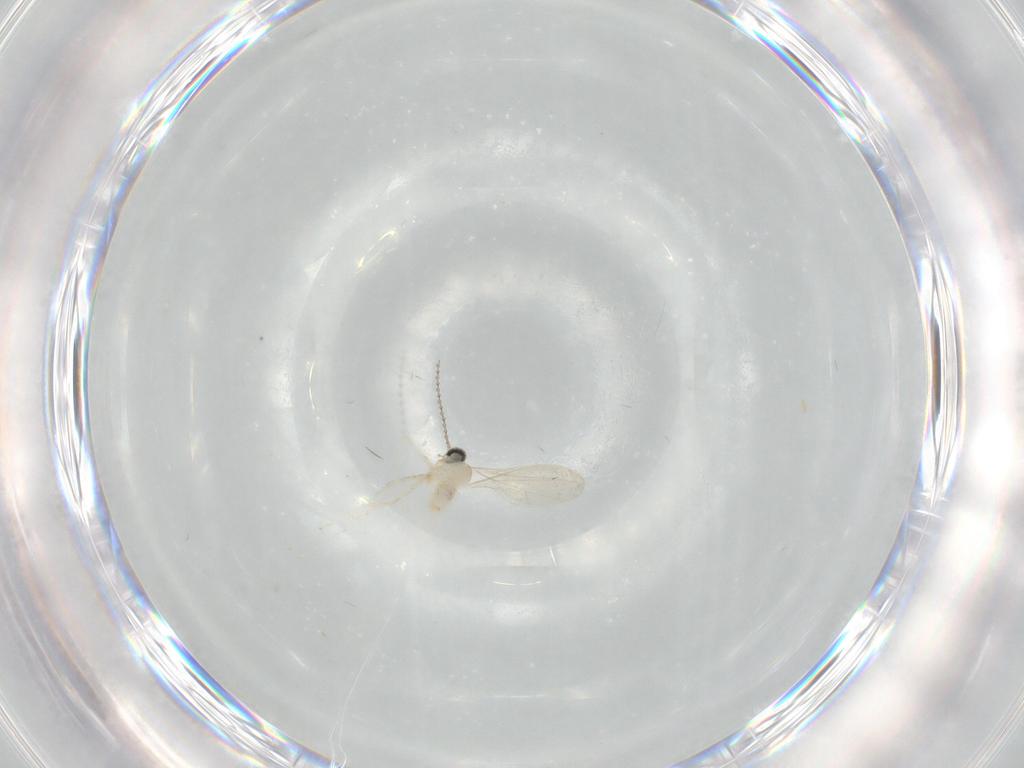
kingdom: Animalia
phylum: Arthropoda
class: Insecta
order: Diptera
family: Cecidomyiidae
